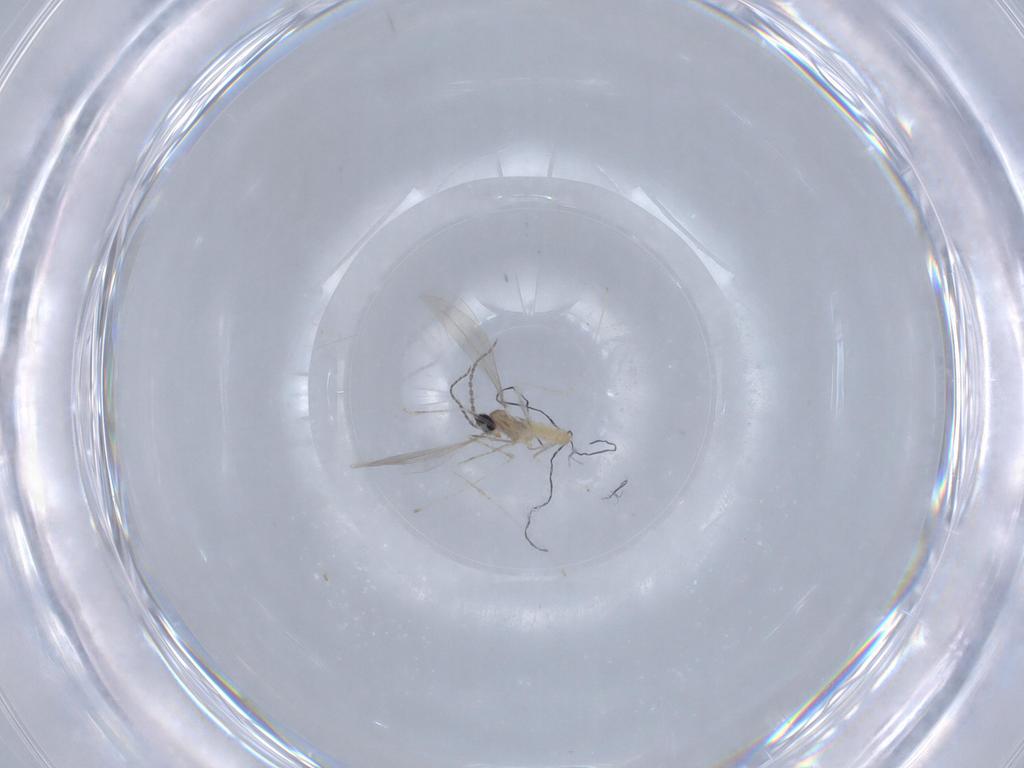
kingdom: Animalia
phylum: Arthropoda
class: Insecta
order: Diptera
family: Cecidomyiidae
